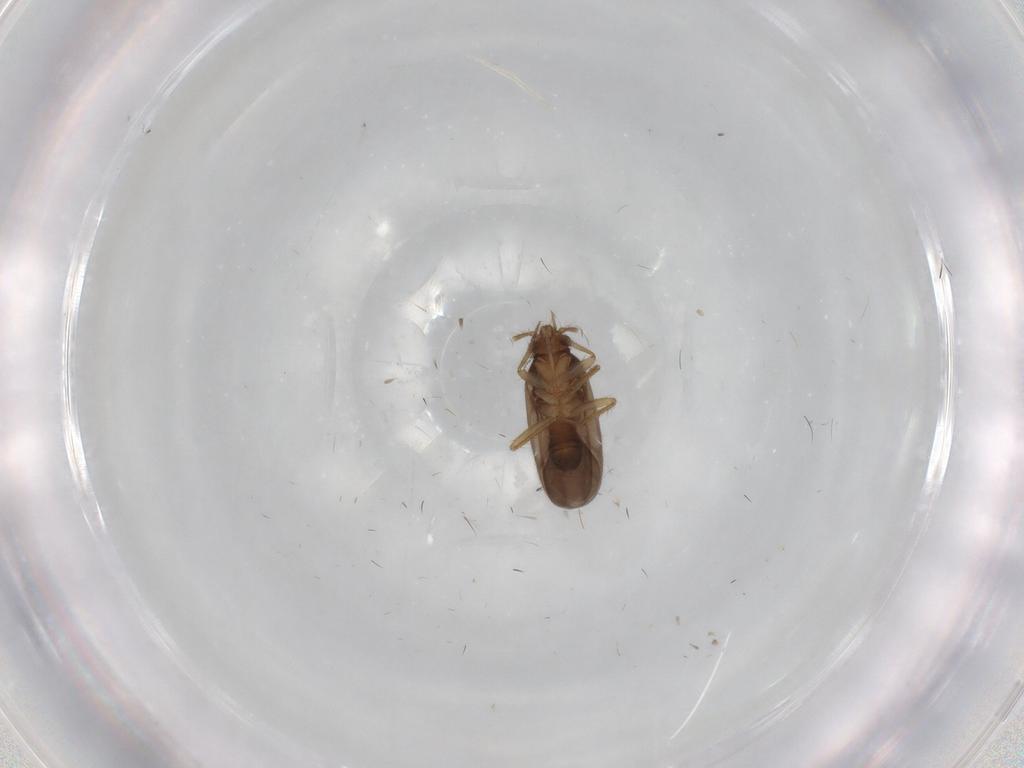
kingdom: Animalia
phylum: Arthropoda
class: Insecta
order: Hemiptera
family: Ceratocombidae
